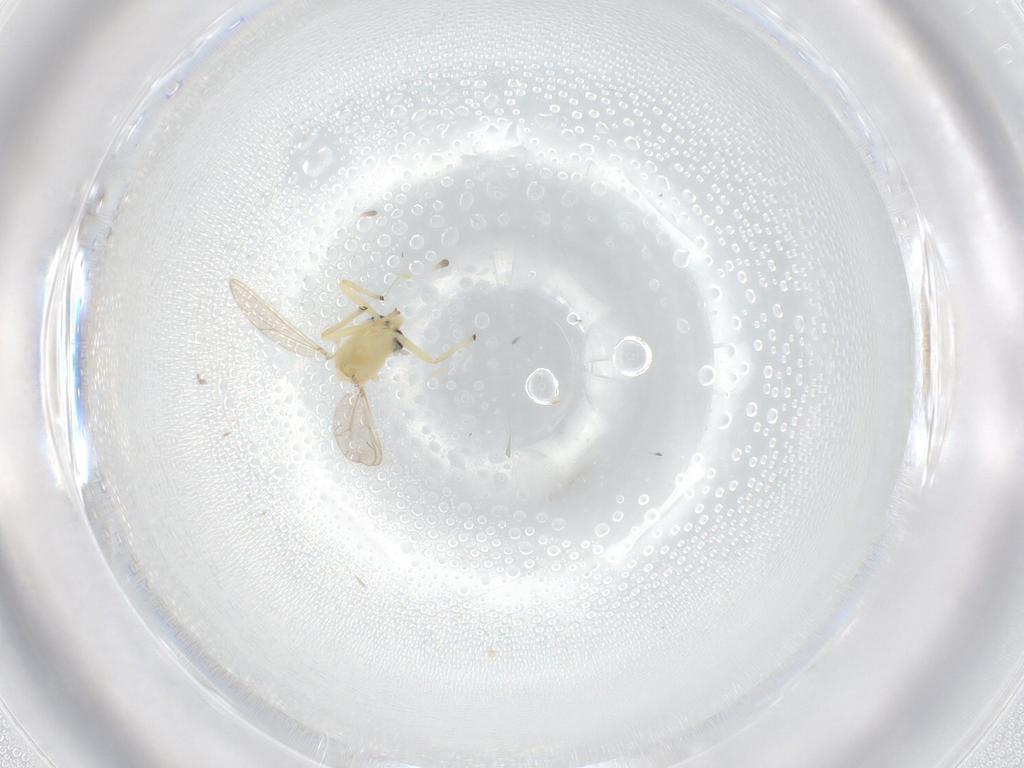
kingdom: Animalia
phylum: Arthropoda
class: Insecta
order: Diptera
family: Chironomidae
